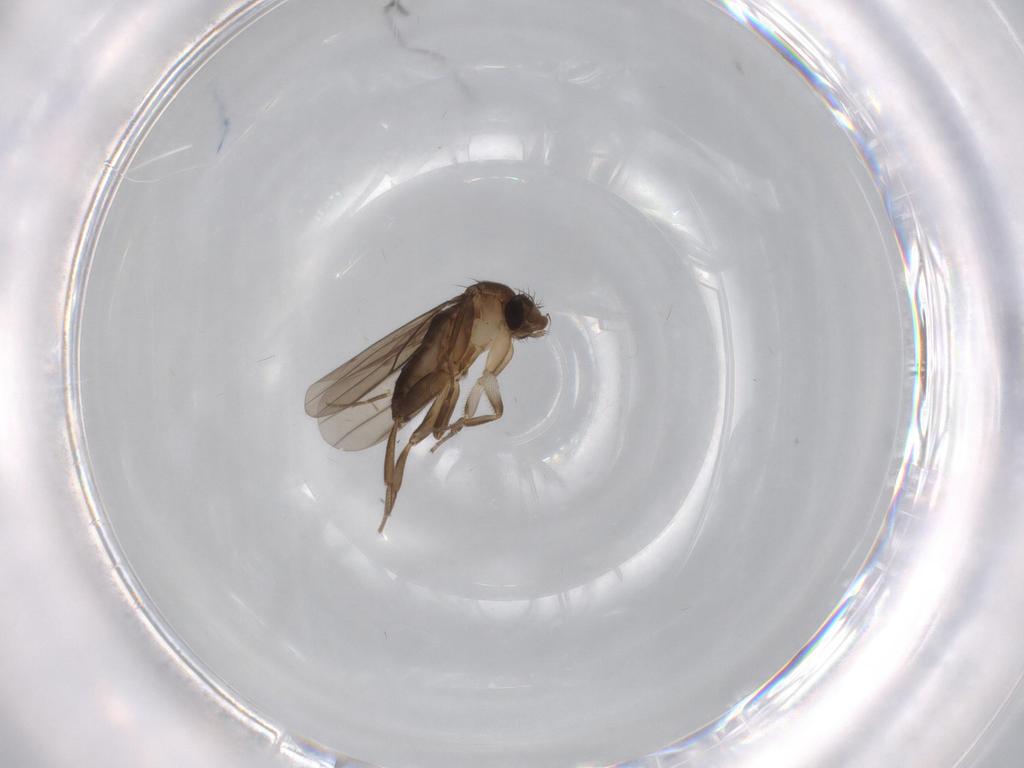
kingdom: Animalia
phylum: Arthropoda
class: Insecta
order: Diptera
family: Chironomidae
